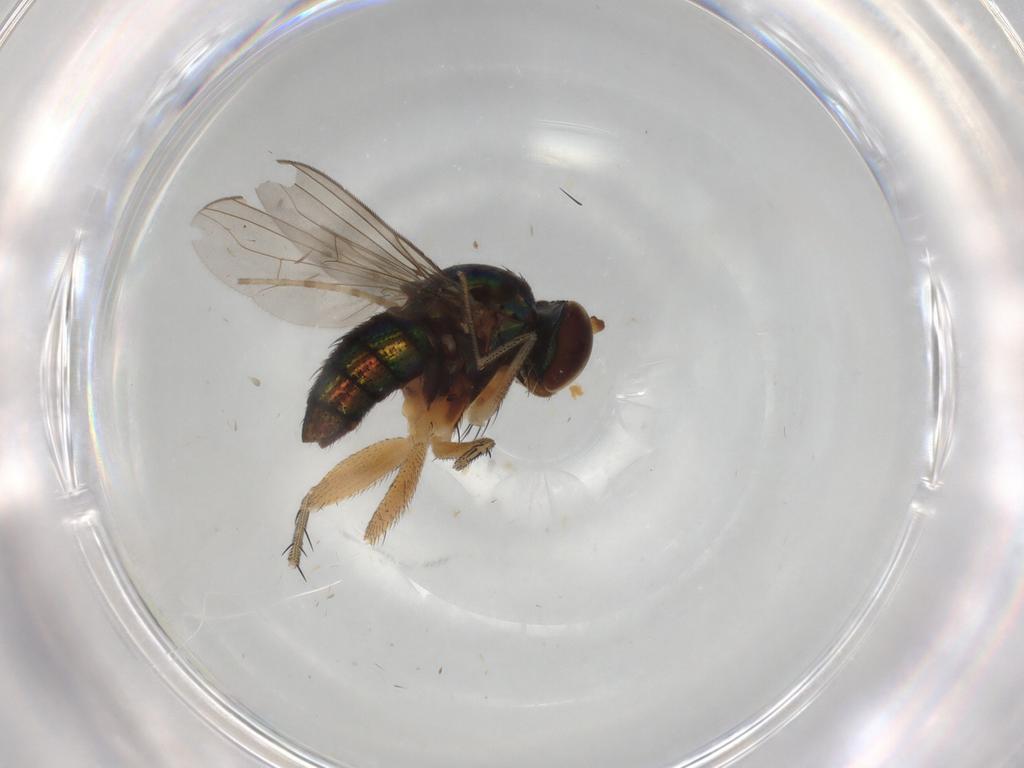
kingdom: Animalia
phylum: Arthropoda
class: Insecta
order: Diptera
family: Dolichopodidae
